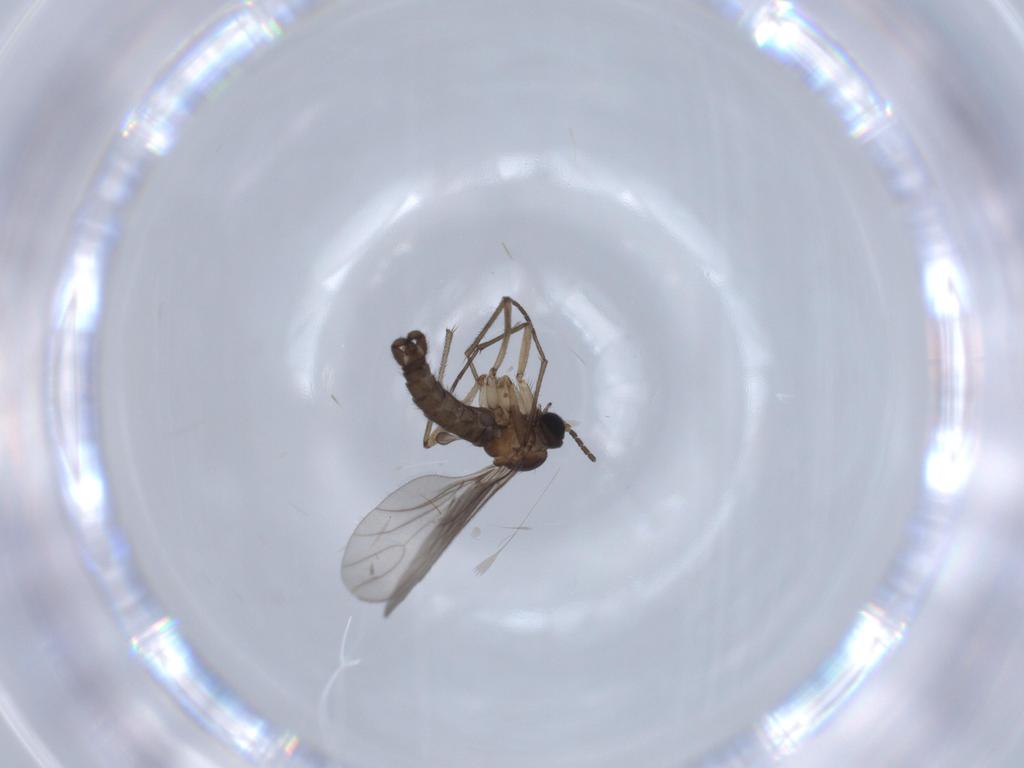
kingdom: Animalia
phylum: Arthropoda
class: Insecta
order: Diptera
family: Sciaridae
